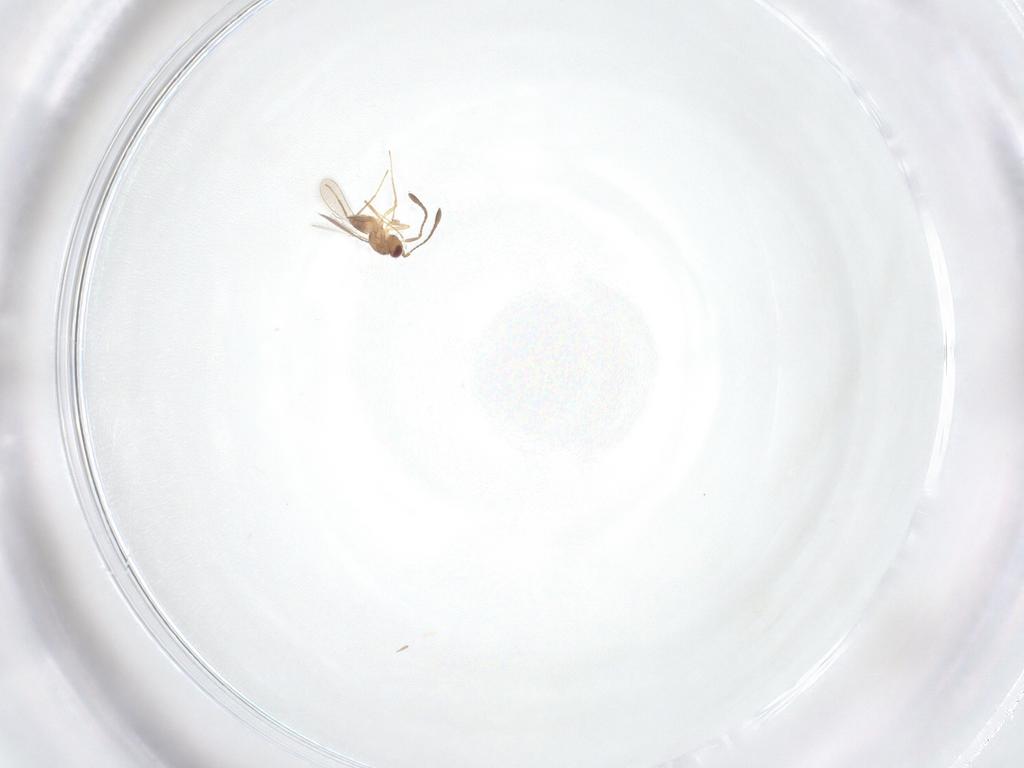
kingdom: Animalia
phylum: Arthropoda
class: Insecta
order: Hymenoptera
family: Mymaridae
